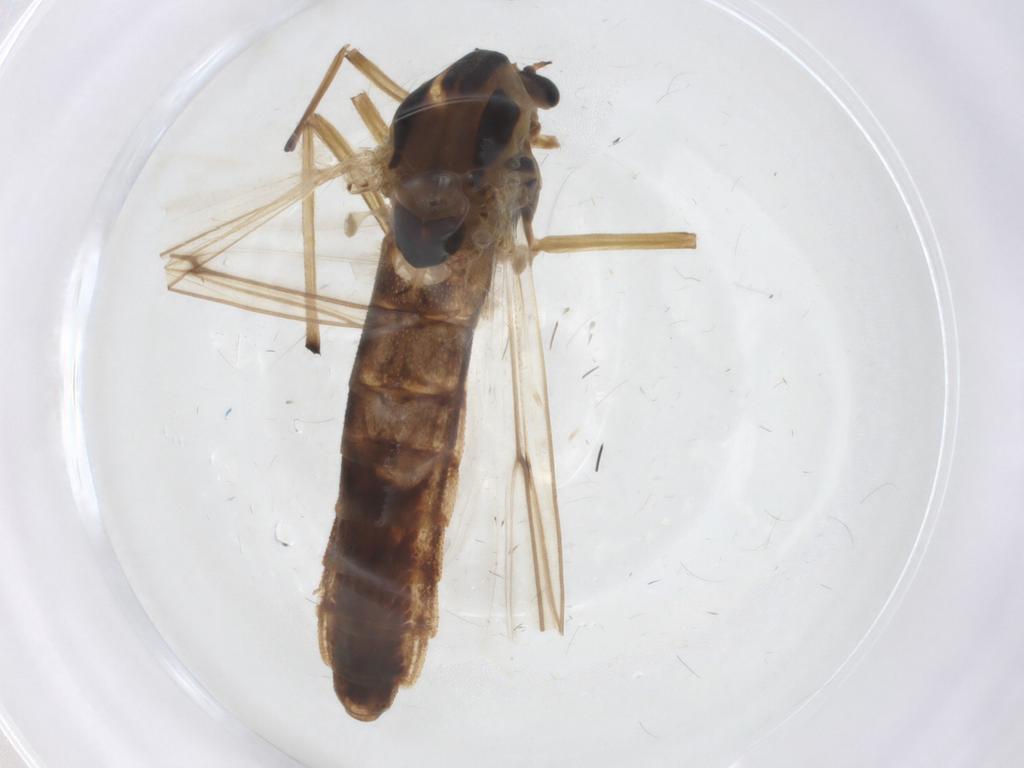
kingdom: Animalia
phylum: Arthropoda
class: Insecta
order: Diptera
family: Chironomidae
